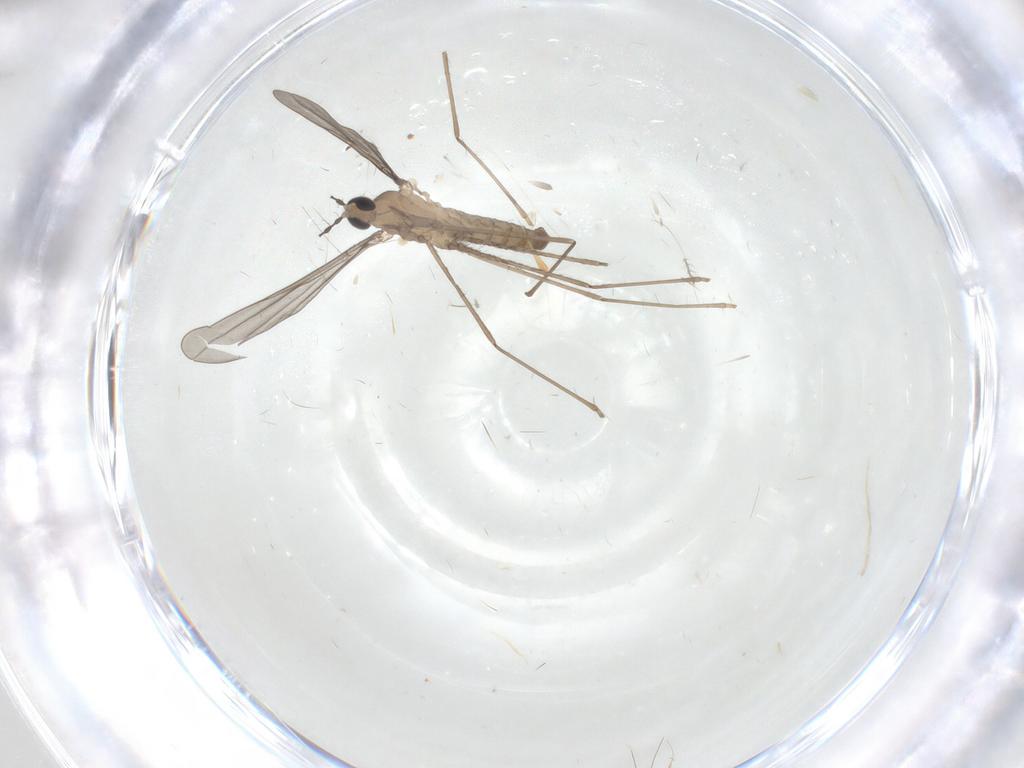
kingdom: Animalia
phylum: Arthropoda
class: Insecta
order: Diptera
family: Cecidomyiidae
